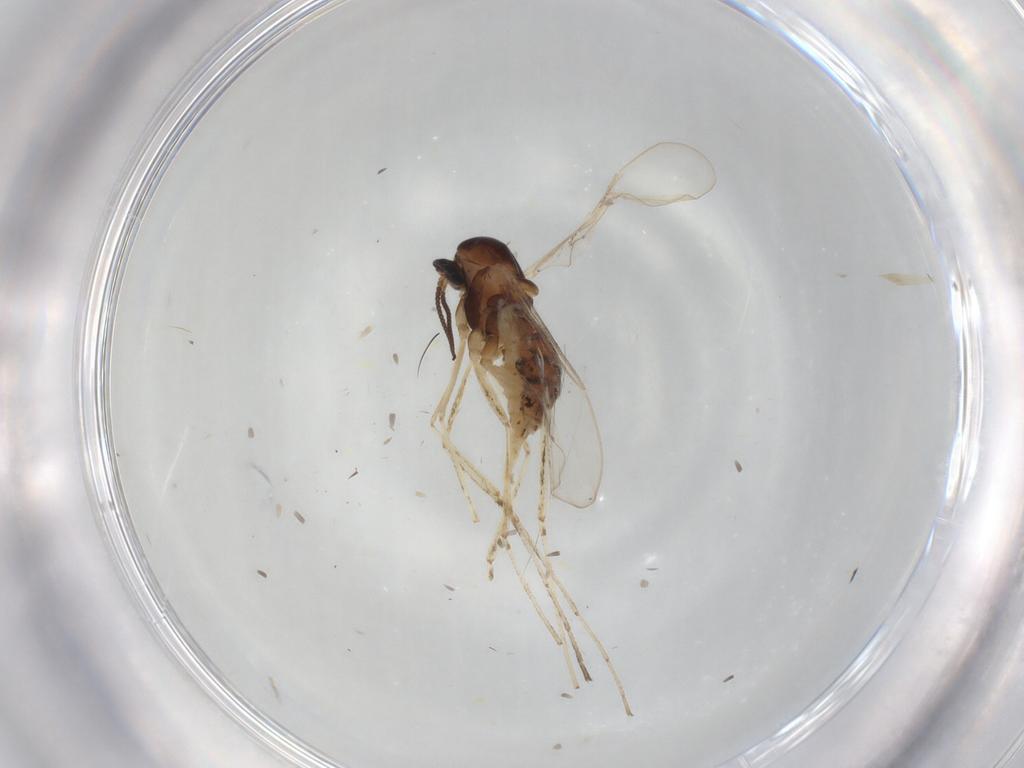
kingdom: Animalia
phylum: Arthropoda
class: Insecta
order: Diptera
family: Cecidomyiidae
